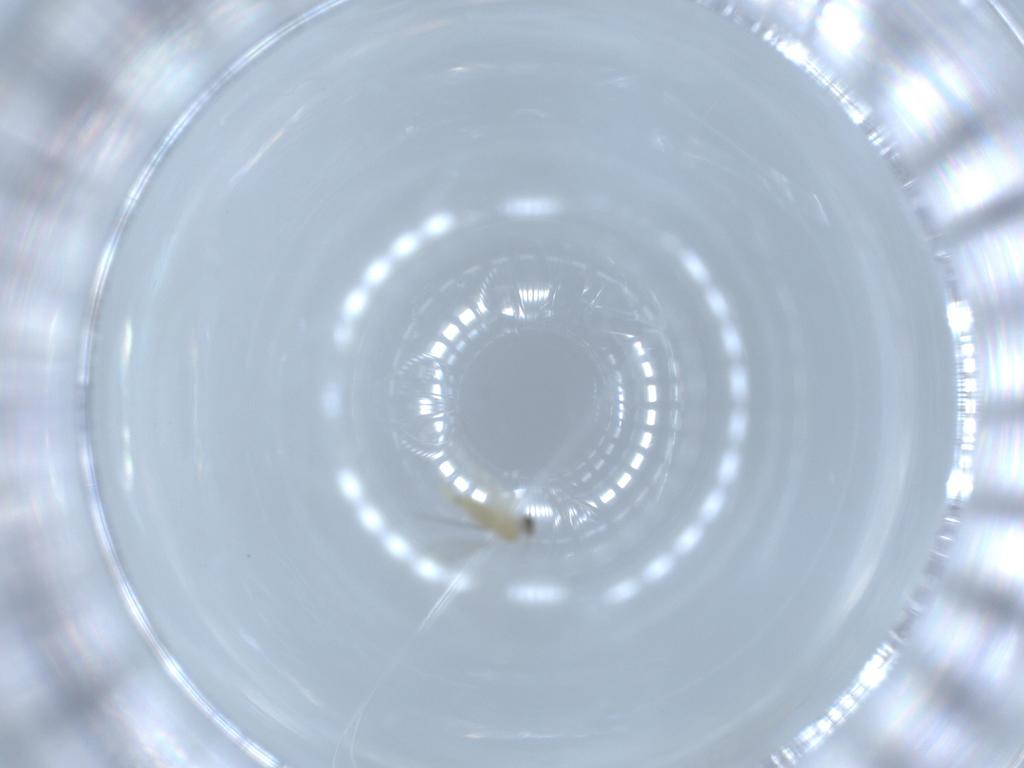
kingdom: Animalia
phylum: Arthropoda
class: Insecta
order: Diptera
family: Cecidomyiidae
